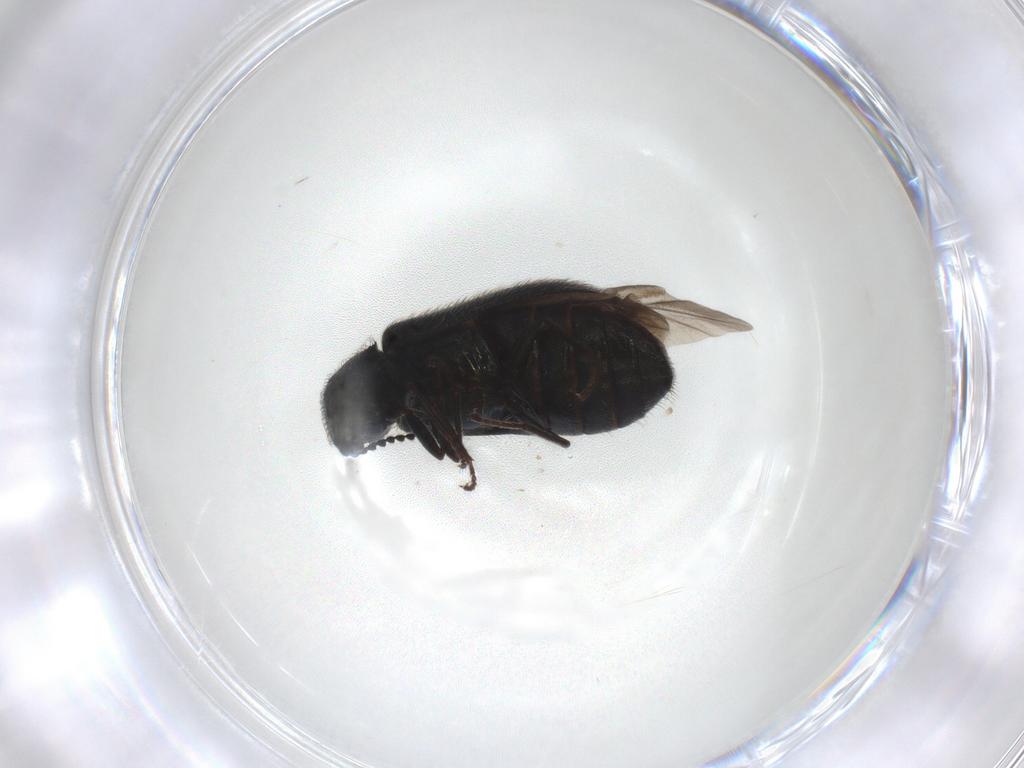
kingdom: Animalia
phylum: Arthropoda
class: Insecta
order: Coleoptera
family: Melyridae
